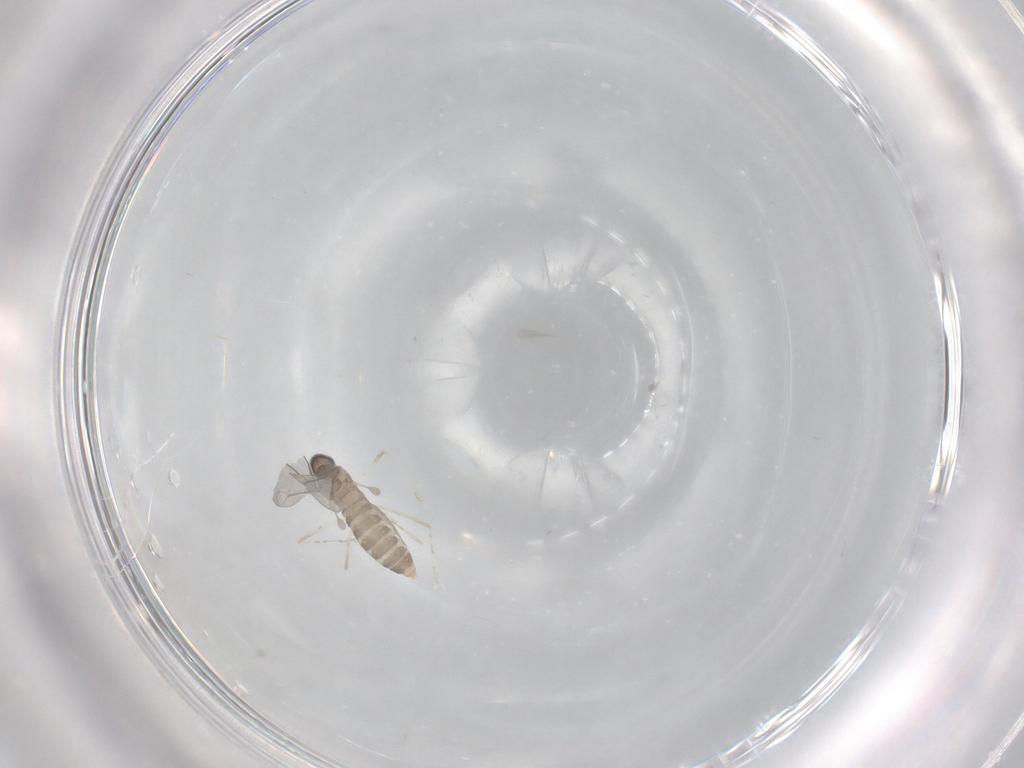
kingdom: Animalia
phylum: Arthropoda
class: Insecta
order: Diptera
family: Cecidomyiidae
